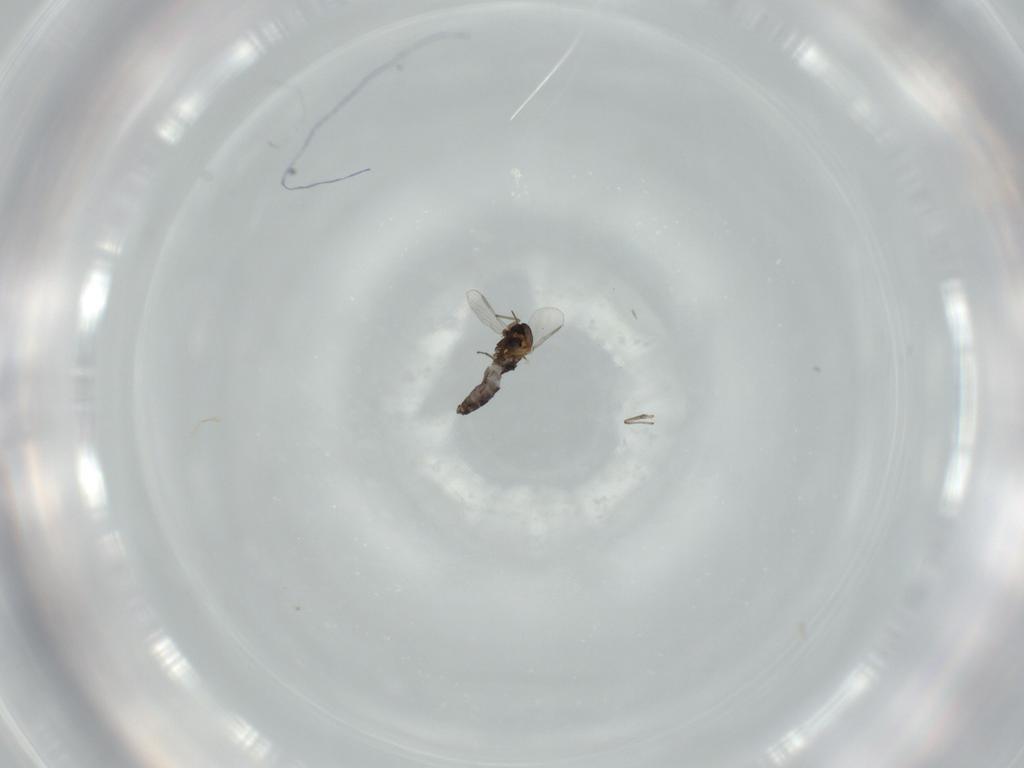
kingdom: Animalia
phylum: Arthropoda
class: Insecta
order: Diptera
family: Chironomidae
